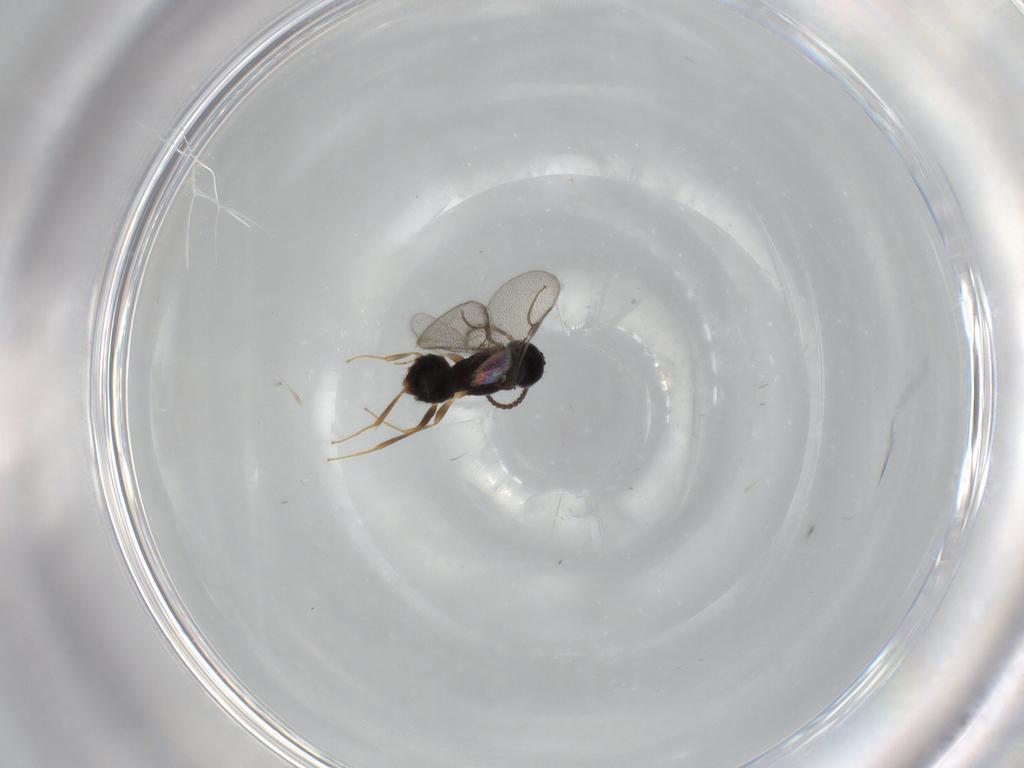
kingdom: Animalia
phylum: Arthropoda
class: Insecta
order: Hymenoptera
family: Bethylidae
